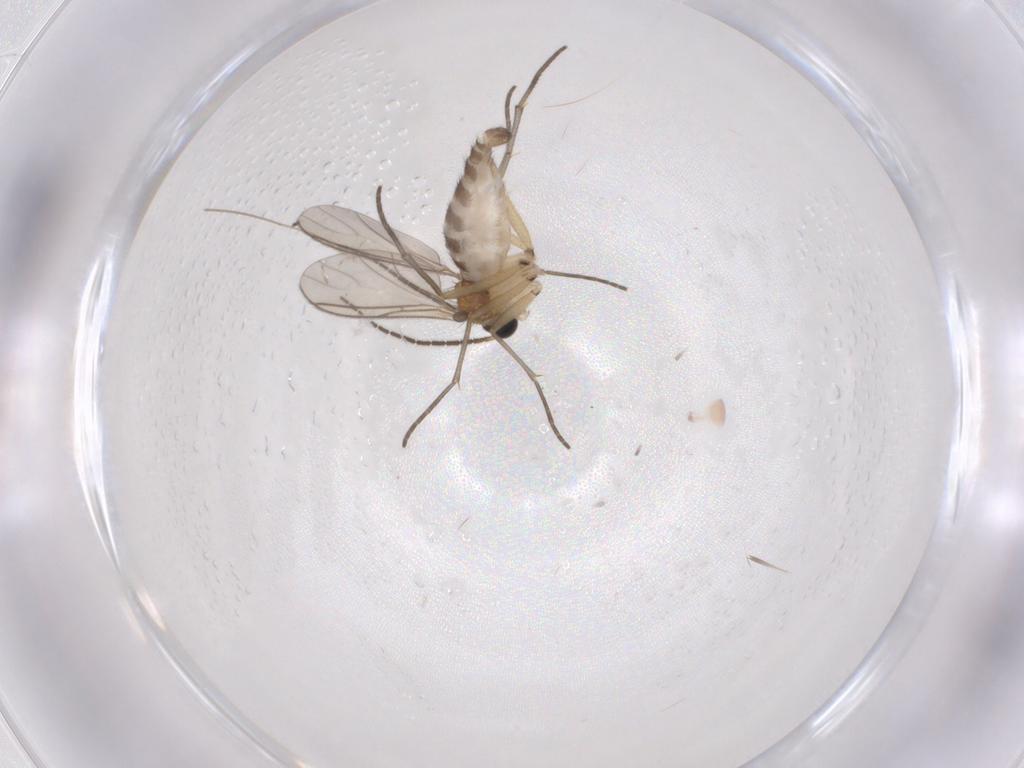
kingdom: Animalia
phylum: Arthropoda
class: Insecta
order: Diptera
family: Sciaridae
